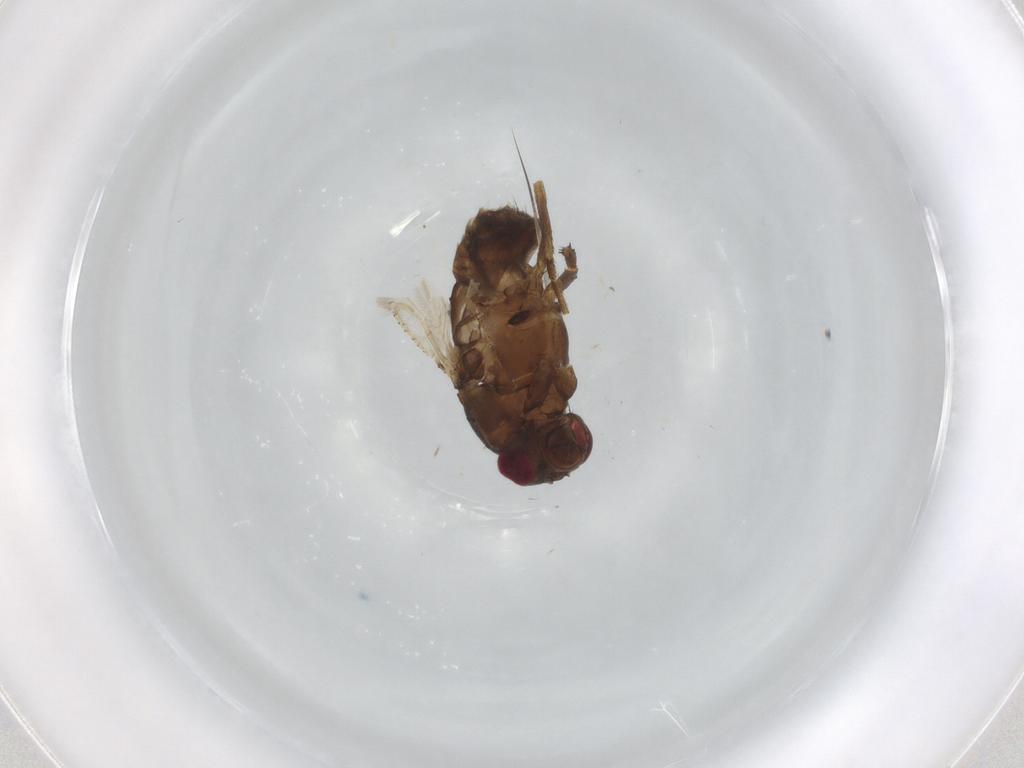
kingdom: Animalia
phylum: Arthropoda
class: Insecta
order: Diptera
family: Sphaeroceridae
